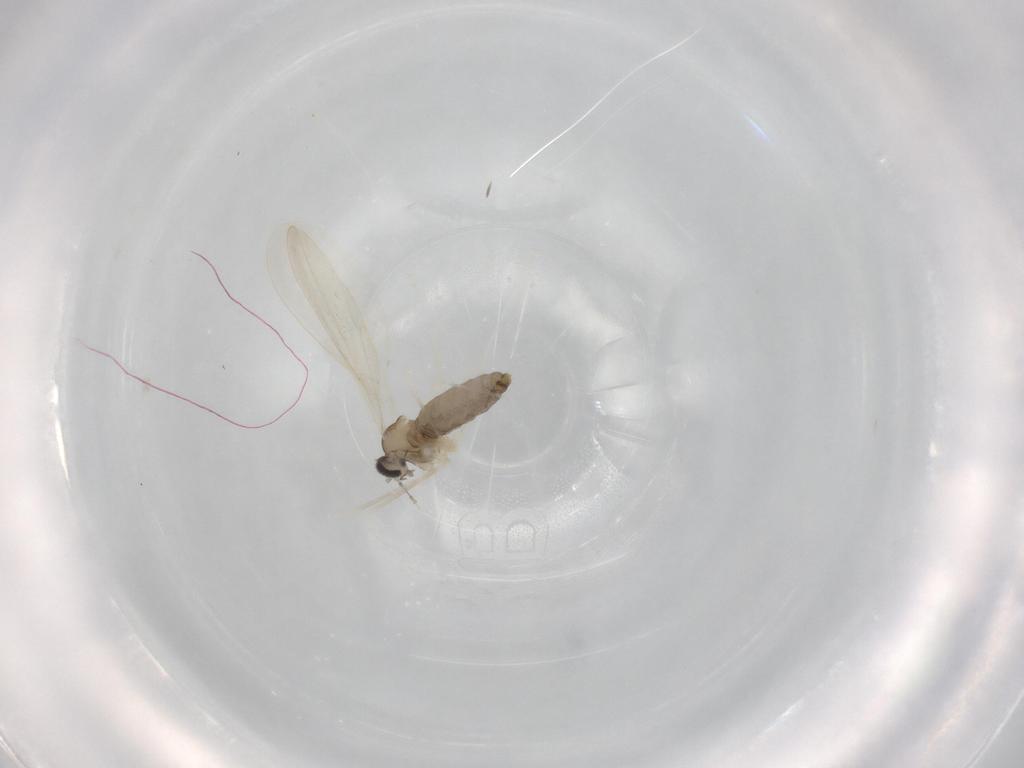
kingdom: Animalia
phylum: Arthropoda
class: Insecta
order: Diptera
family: Cecidomyiidae
